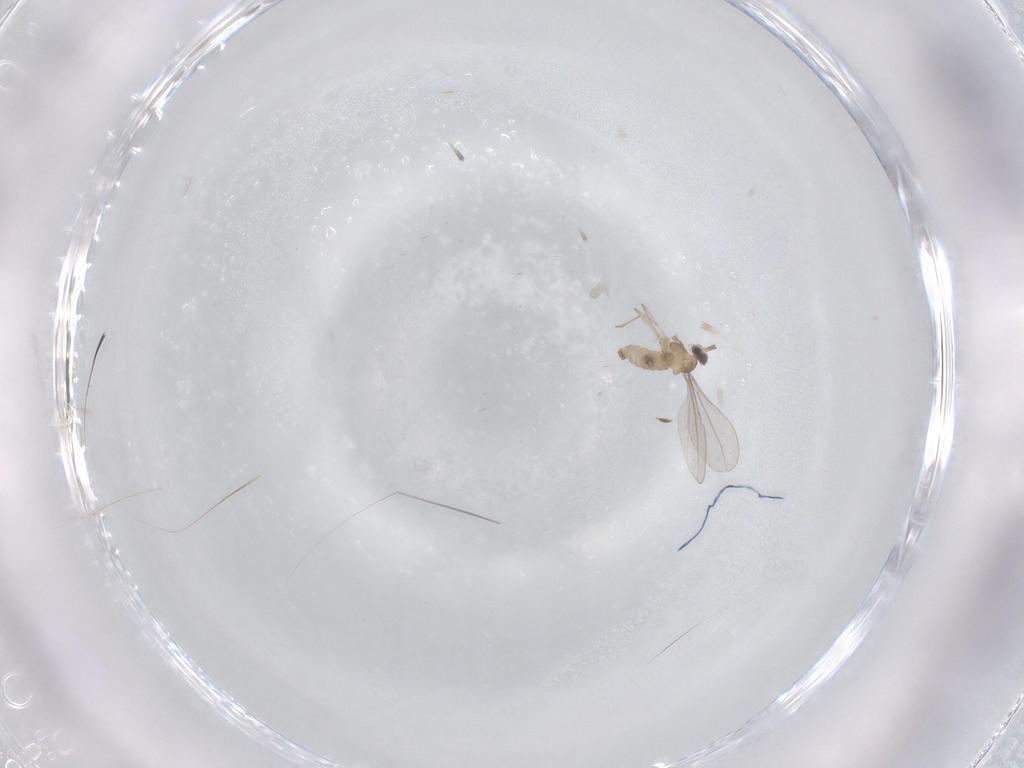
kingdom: Animalia
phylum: Arthropoda
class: Insecta
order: Diptera
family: Cecidomyiidae
